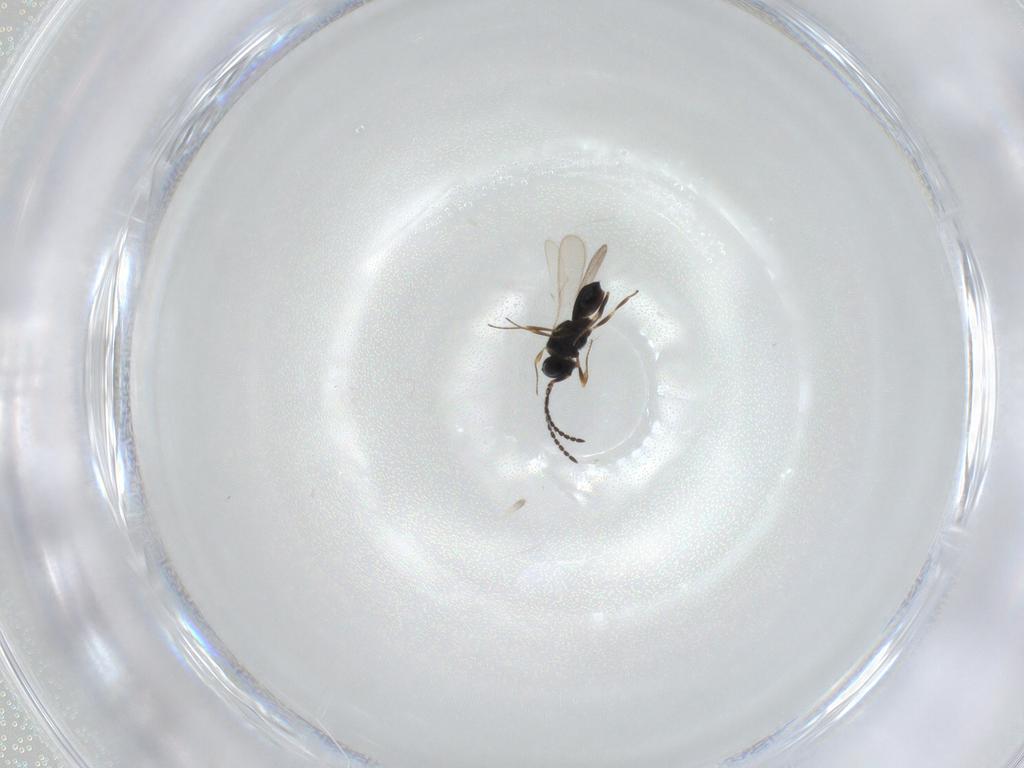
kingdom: Animalia
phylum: Arthropoda
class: Insecta
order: Hymenoptera
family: Scelionidae
